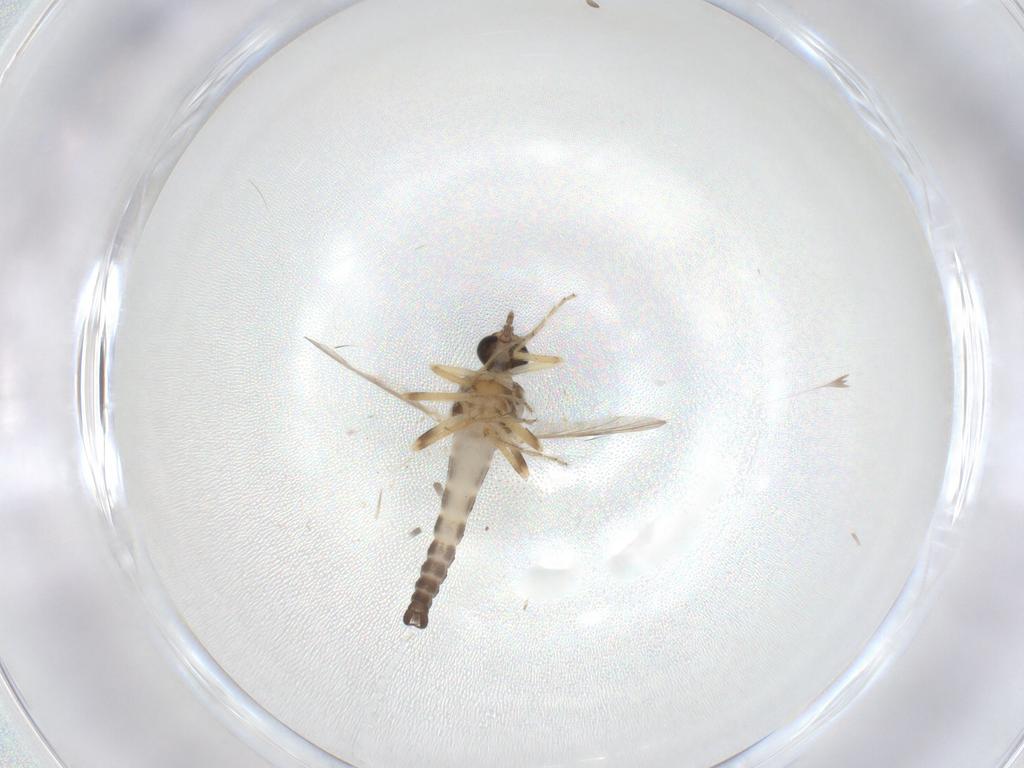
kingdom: Animalia
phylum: Arthropoda
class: Insecta
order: Diptera
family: Ceratopogonidae
